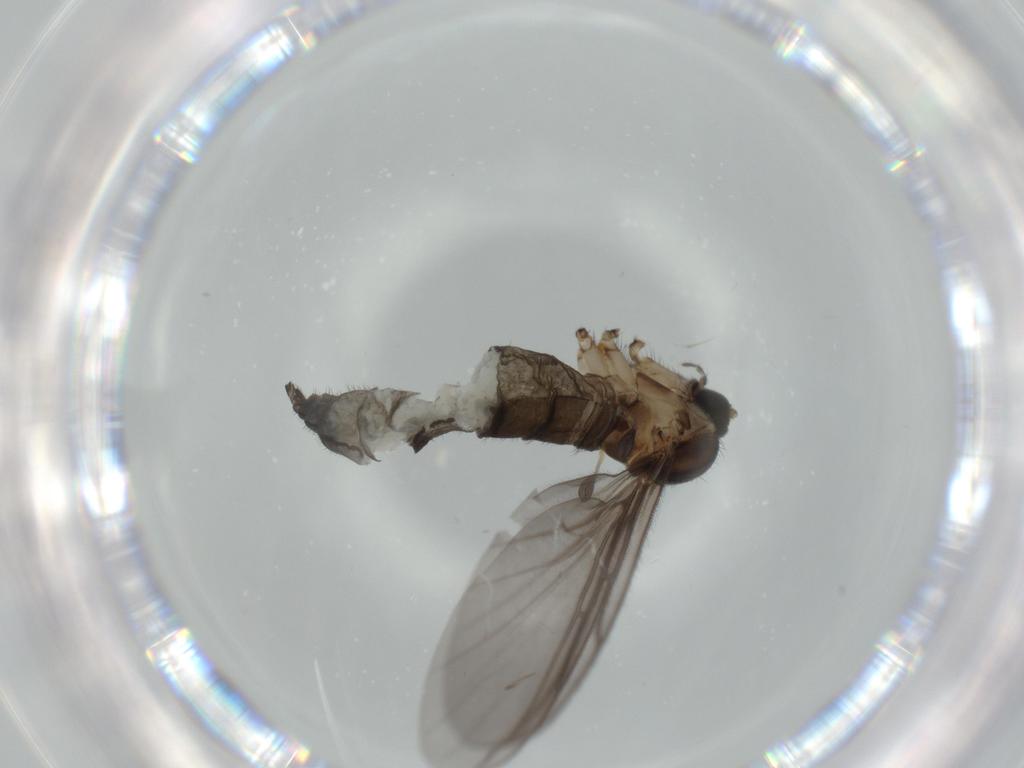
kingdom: Animalia
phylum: Arthropoda
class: Insecta
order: Diptera
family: Sciaridae
